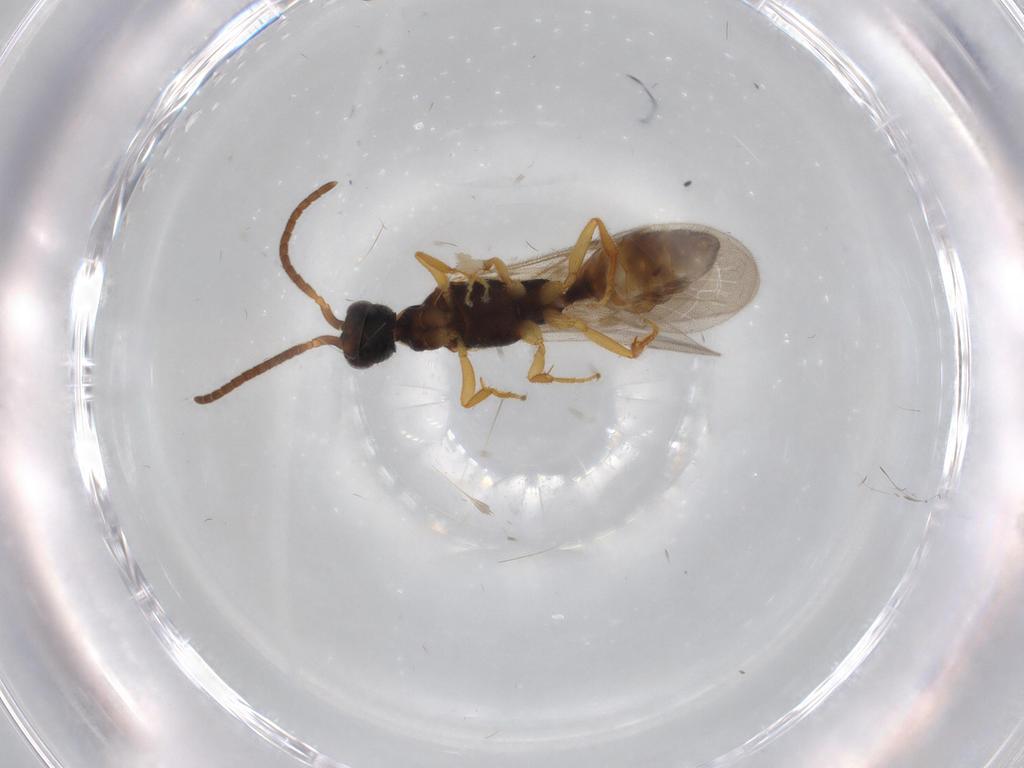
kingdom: Animalia
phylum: Arthropoda
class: Insecta
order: Hymenoptera
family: Bethylidae
